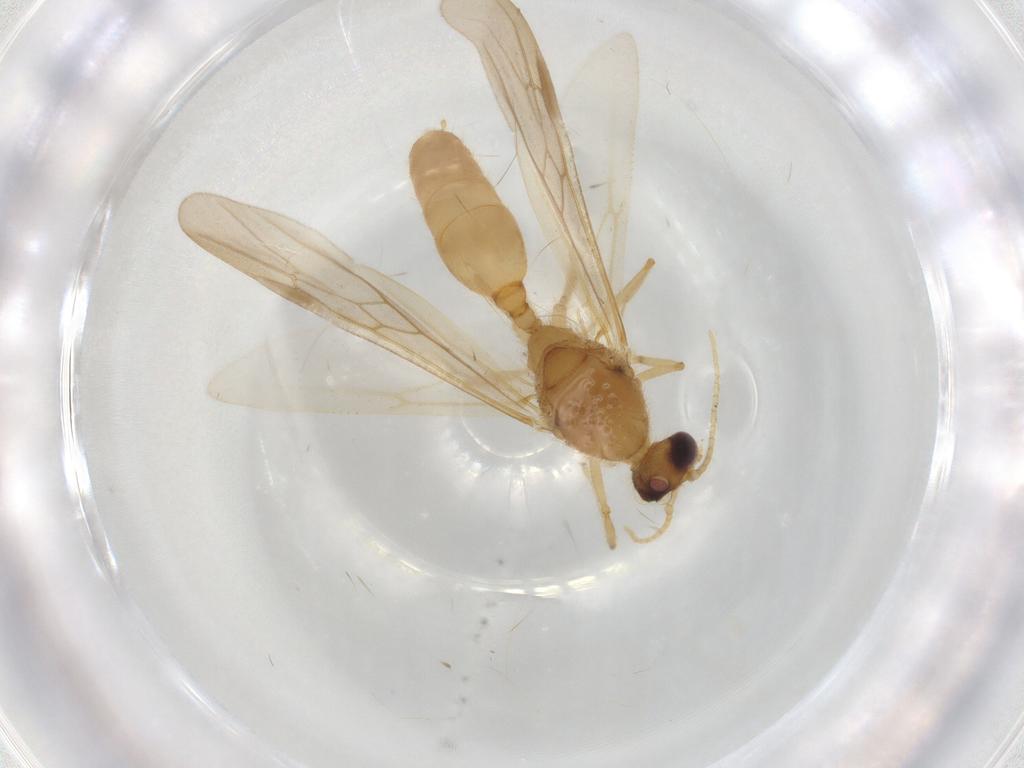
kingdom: Animalia
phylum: Arthropoda
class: Insecta
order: Hymenoptera
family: Formicidae
